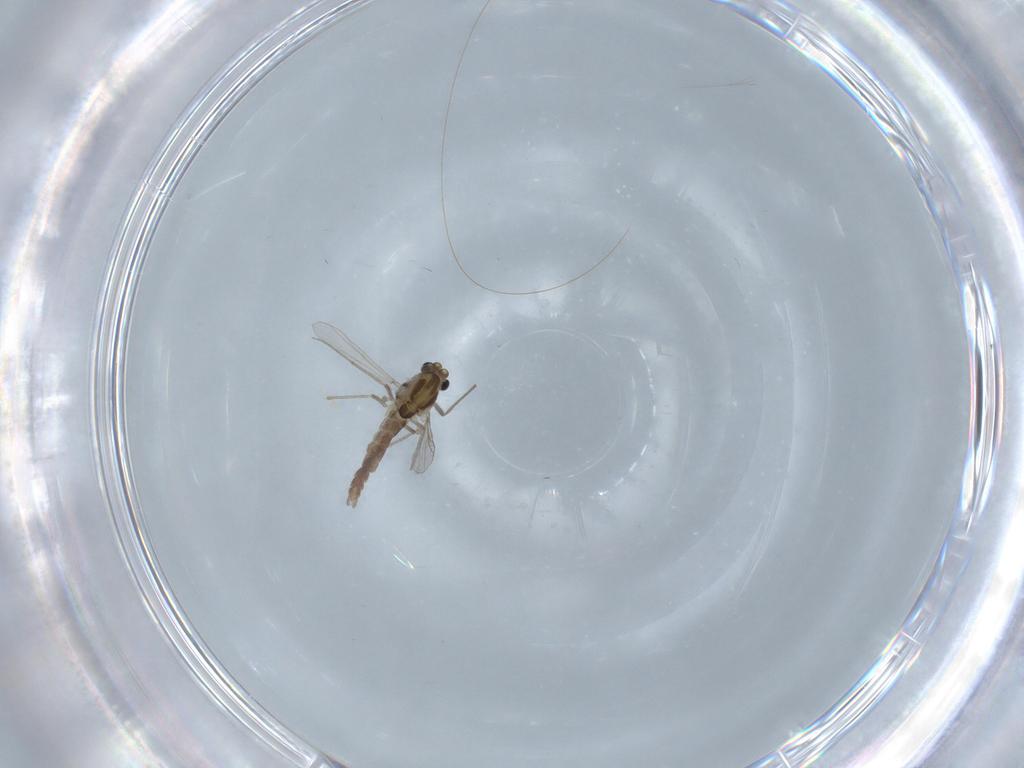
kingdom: Animalia
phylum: Arthropoda
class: Insecta
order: Diptera
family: Chironomidae
